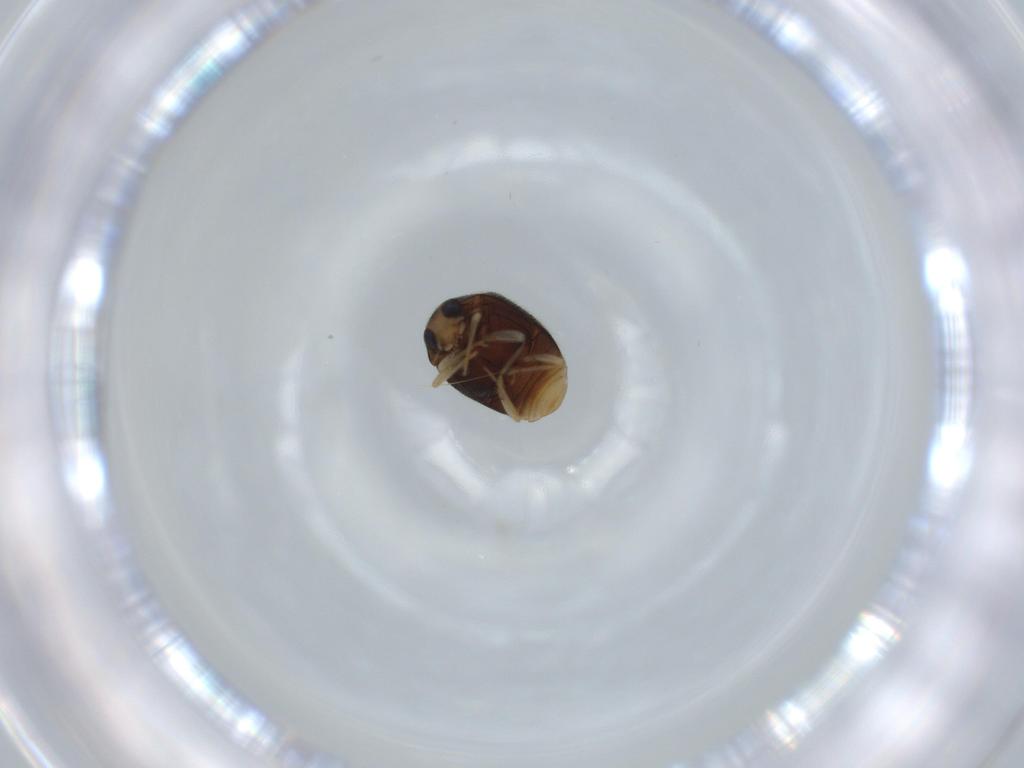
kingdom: Animalia
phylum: Arthropoda
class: Insecta
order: Coleoptera
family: Coccinellidae
